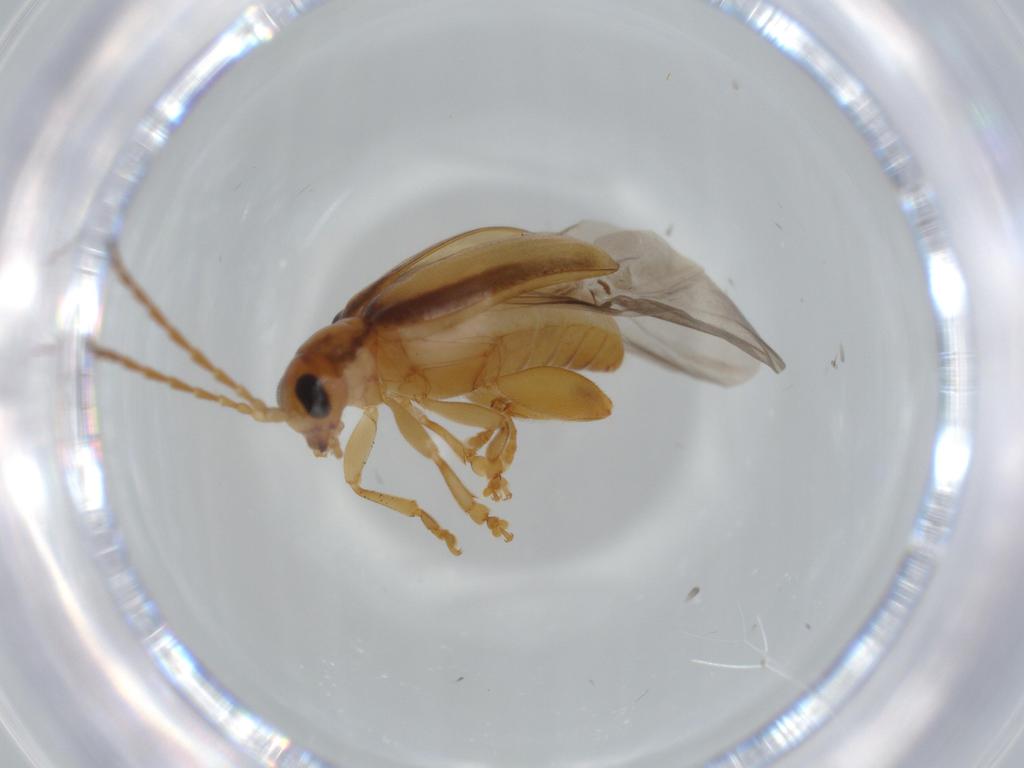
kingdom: Animalia
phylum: Arthropoda
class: Insecta
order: Coleoptera
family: Chrysomelidae
